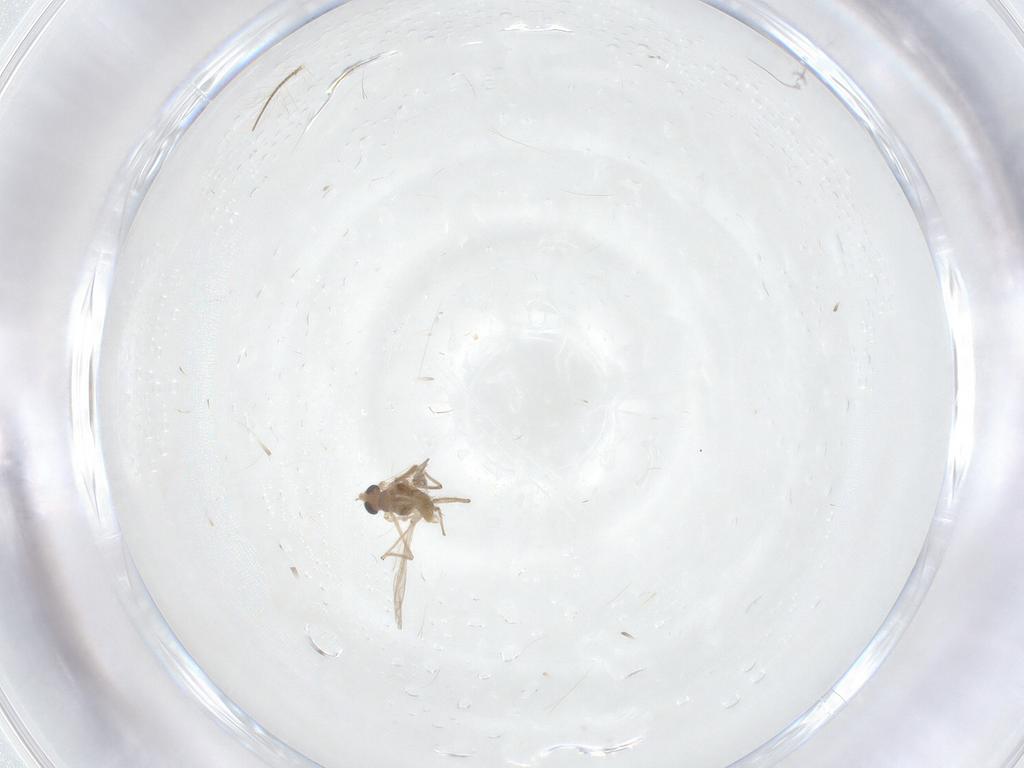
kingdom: Animalia
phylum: Arthropoda
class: Insecta
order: Diptera
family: Chironomidae
